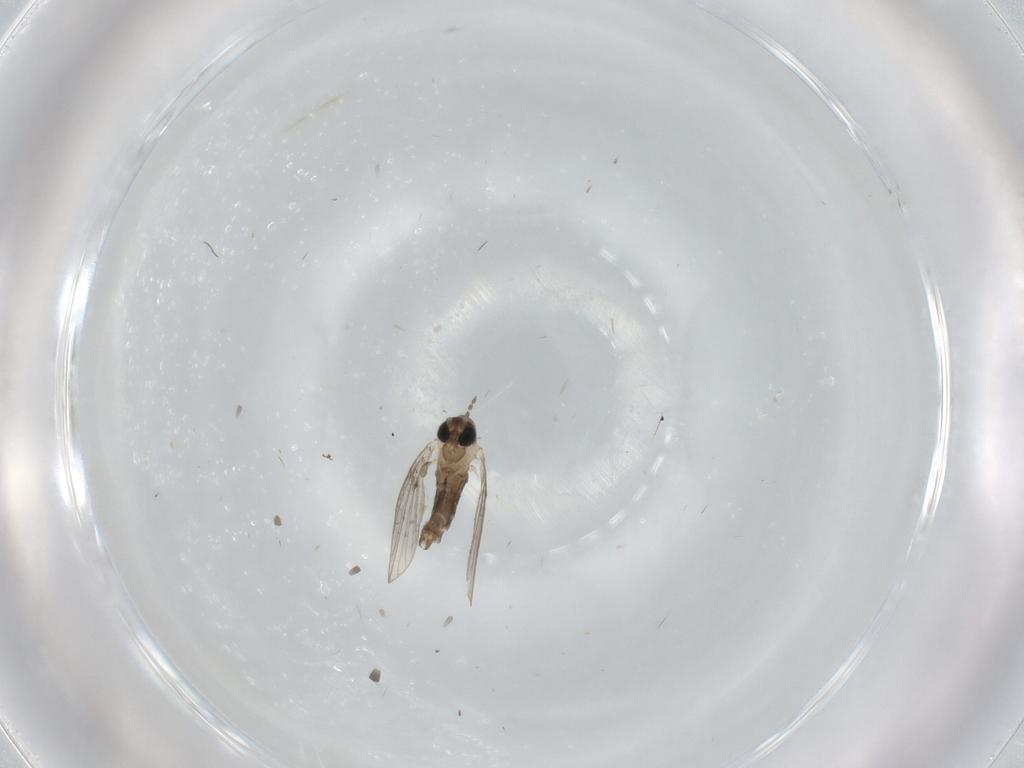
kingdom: Animalia
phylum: Arthropoda
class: Insecta
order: Diptera
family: Psychodidae
